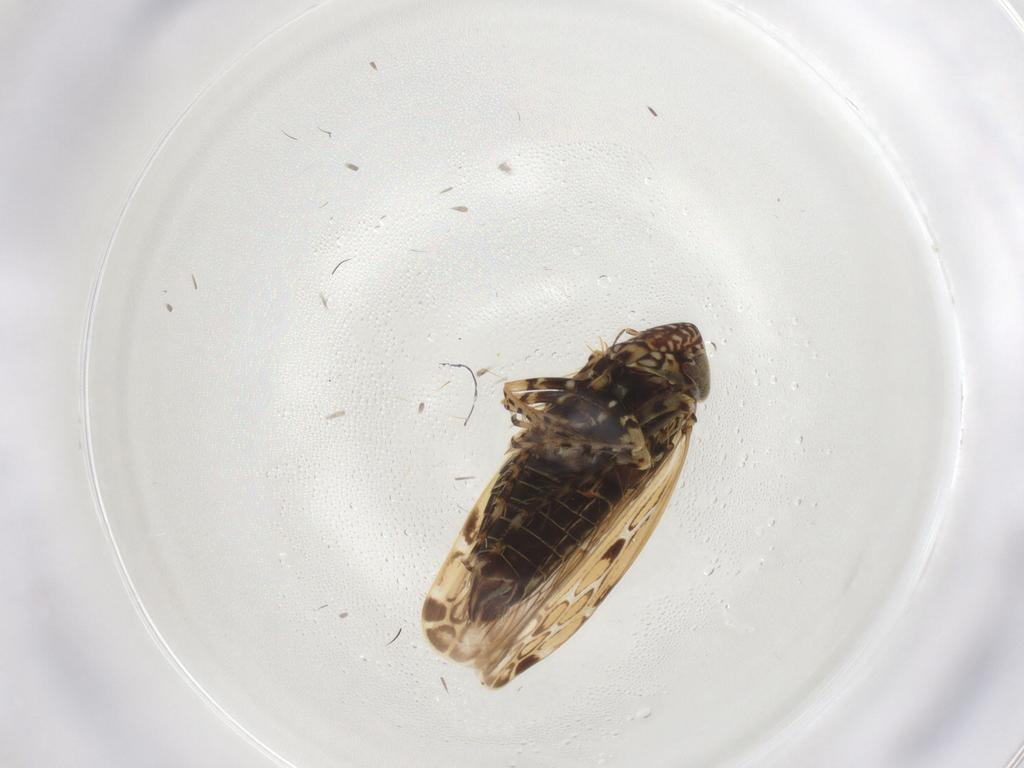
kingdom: Animalia
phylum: Arthropoda
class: Insecta
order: Hemiptera
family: Cicadellidae
